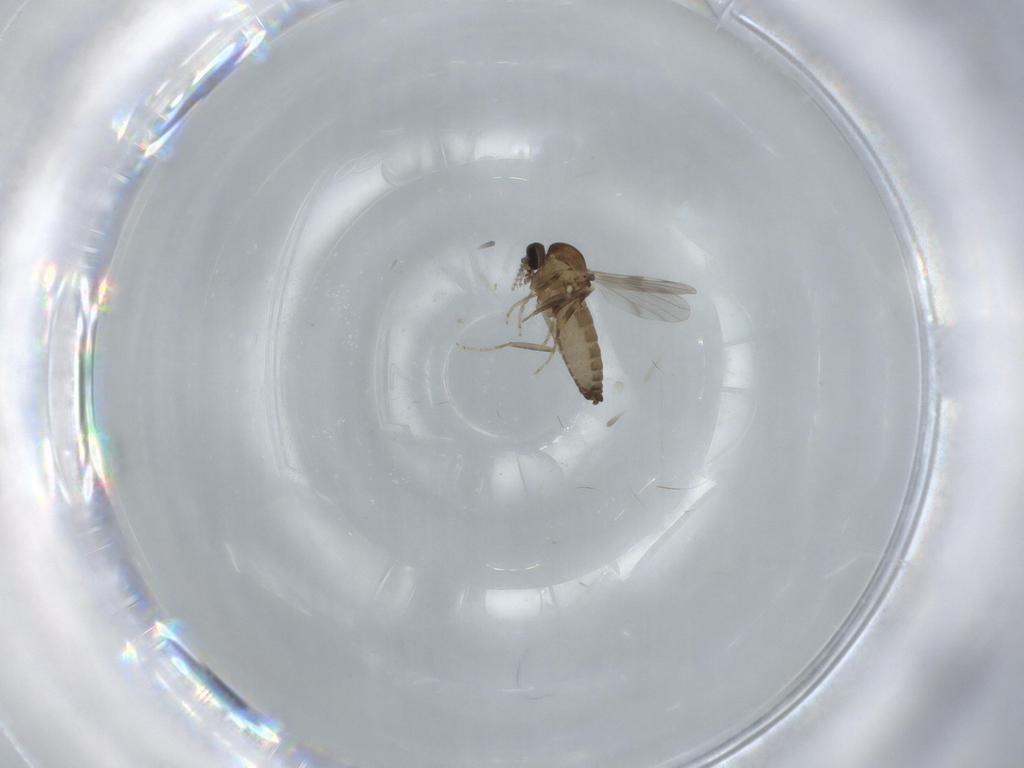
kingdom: Animalia
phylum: Arthropoda
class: Insecta
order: Diptera
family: Ceratopogonidae
